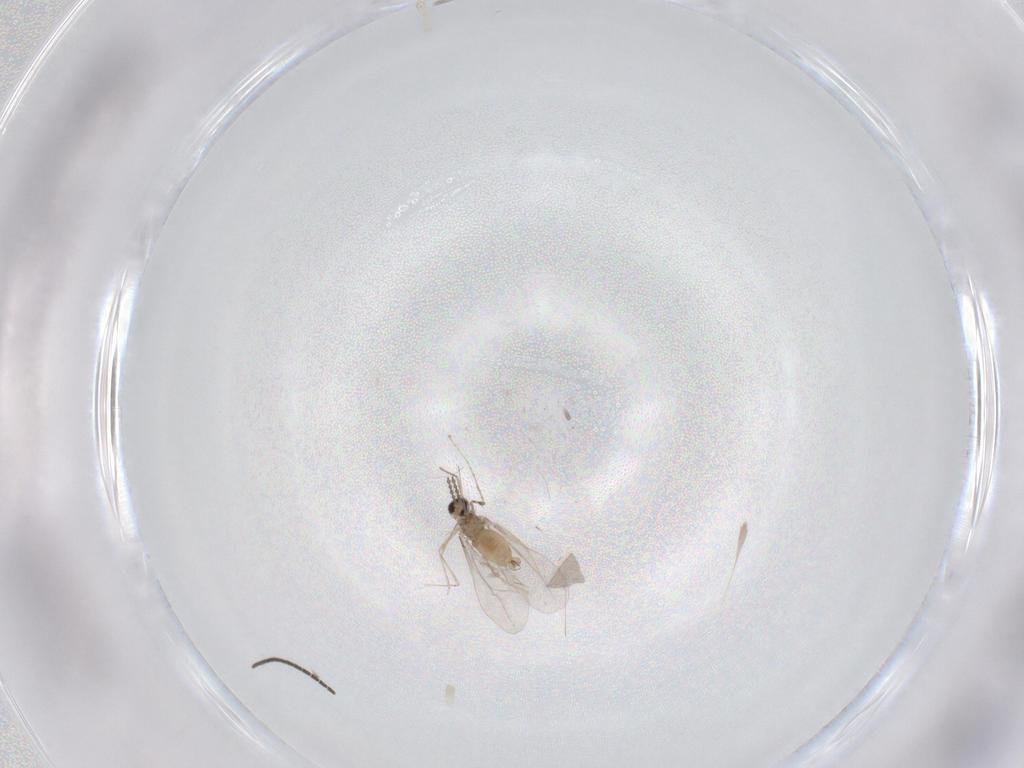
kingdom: Animalia
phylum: Arthropoda
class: Insecta
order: Diptera
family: Sciaridae
